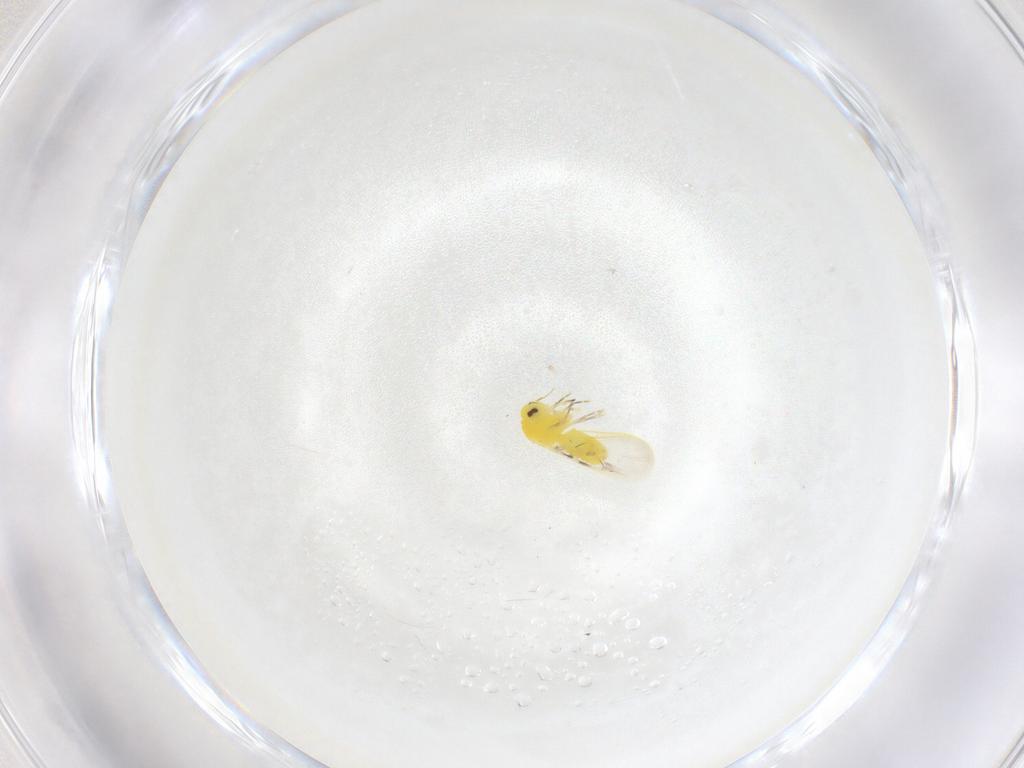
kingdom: Animalia
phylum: Arthropoda
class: Insecta
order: Hemiptera
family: Aleyrodidae
